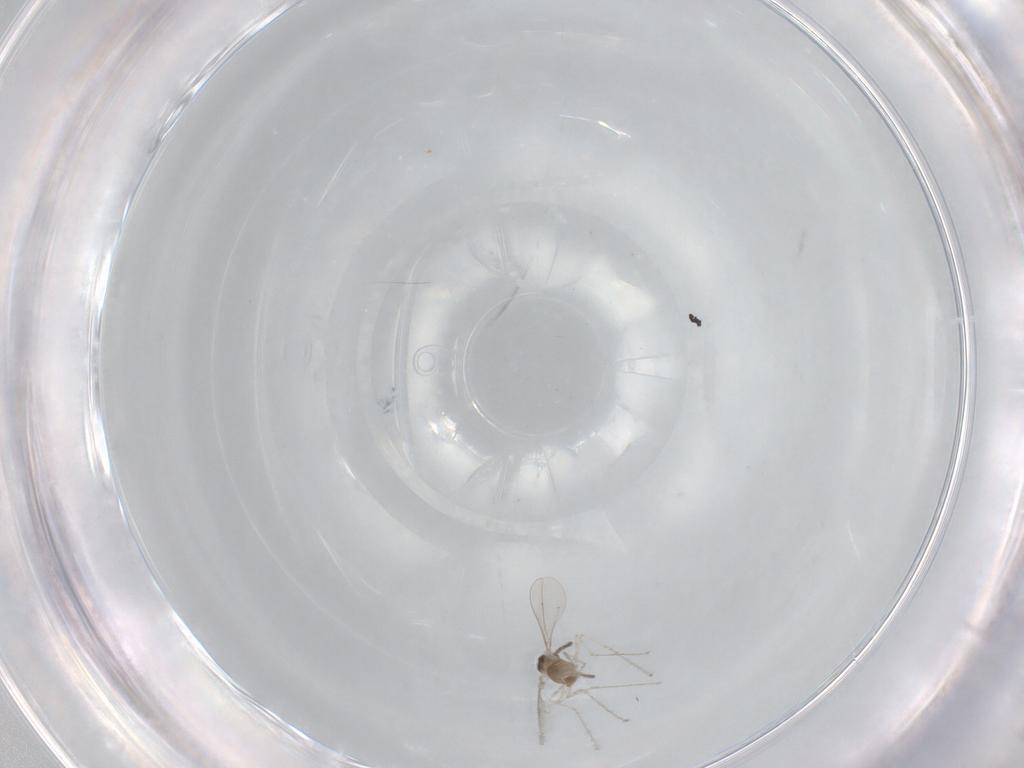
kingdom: Animalia
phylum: Arthropoda
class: Insecta
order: Diptera
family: Cecidomyiidae
